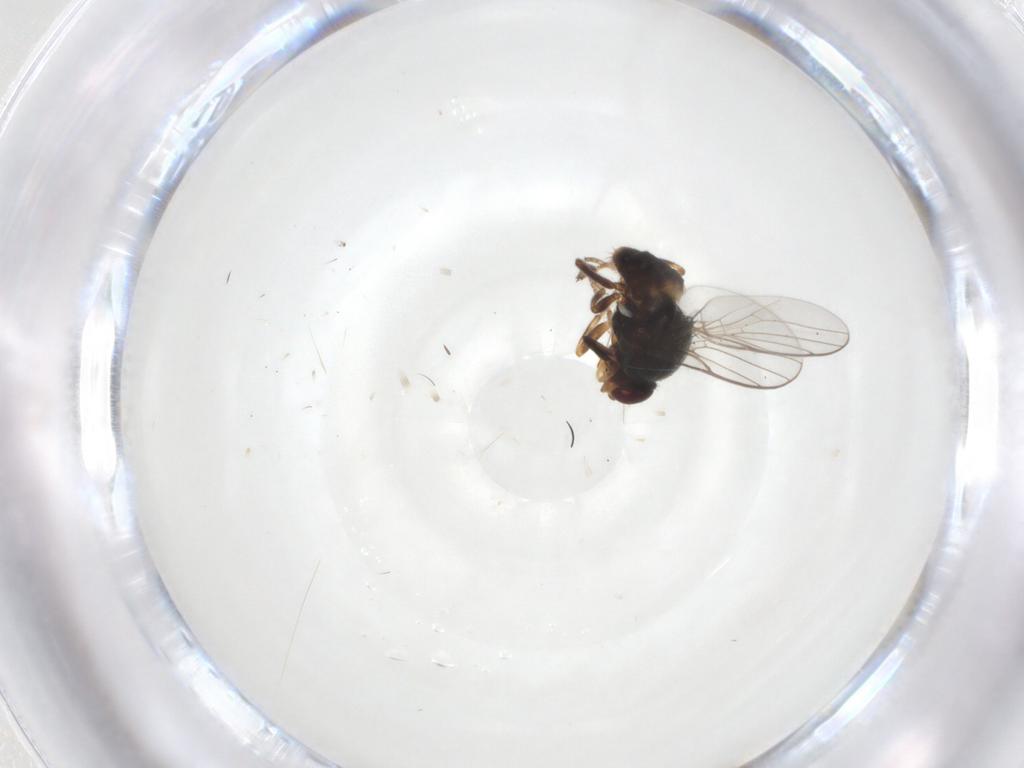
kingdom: Animalia
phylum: Arthropoda
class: Insecta
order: Diptera
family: Chloropidae
